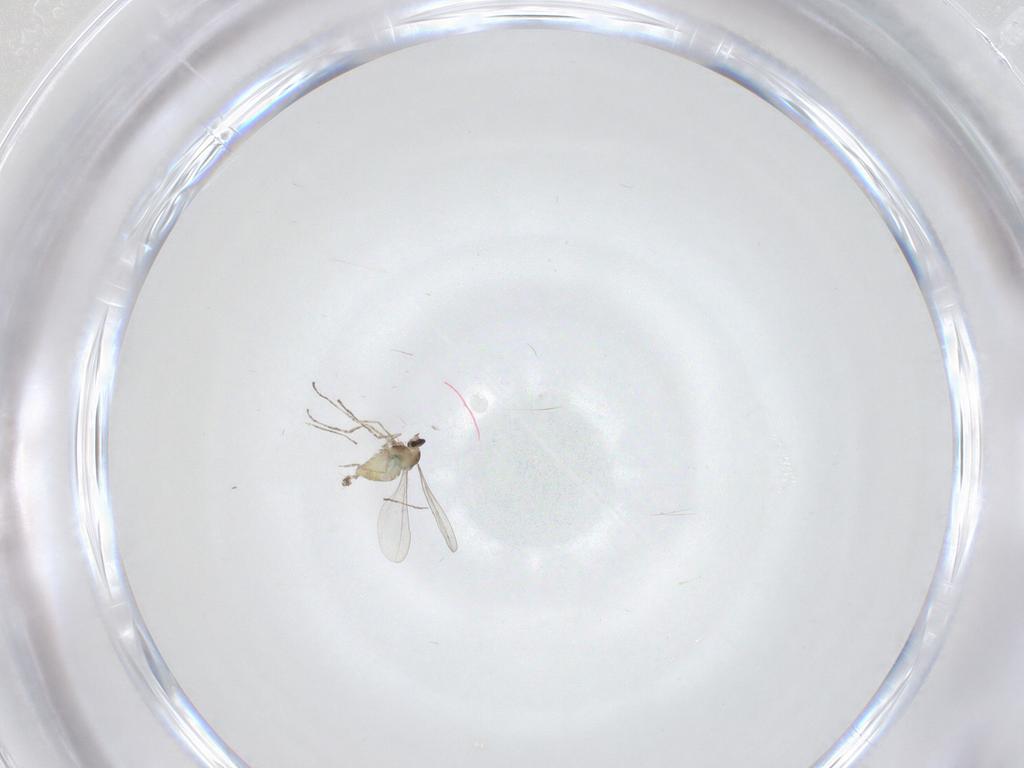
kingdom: Animalia
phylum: Arthropoda
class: Insecta
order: Diptera
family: Cecidomyiidae
